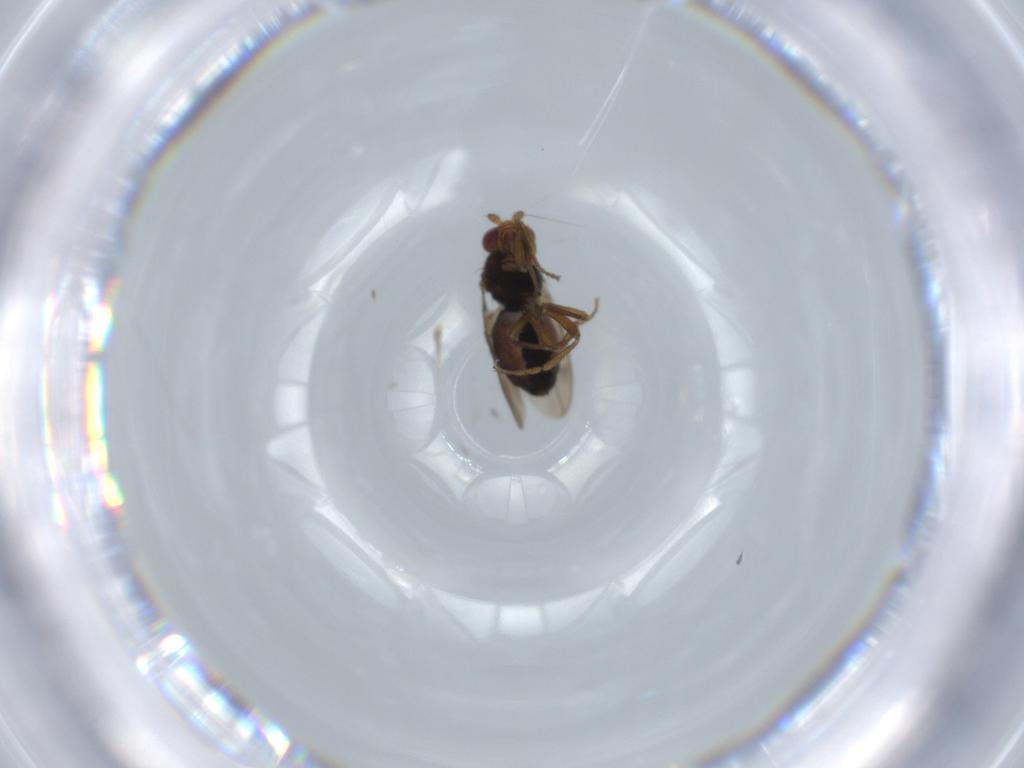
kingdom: Animalia
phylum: Arthropoda
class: Insecta
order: Diptera
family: Sphaeroceridae
